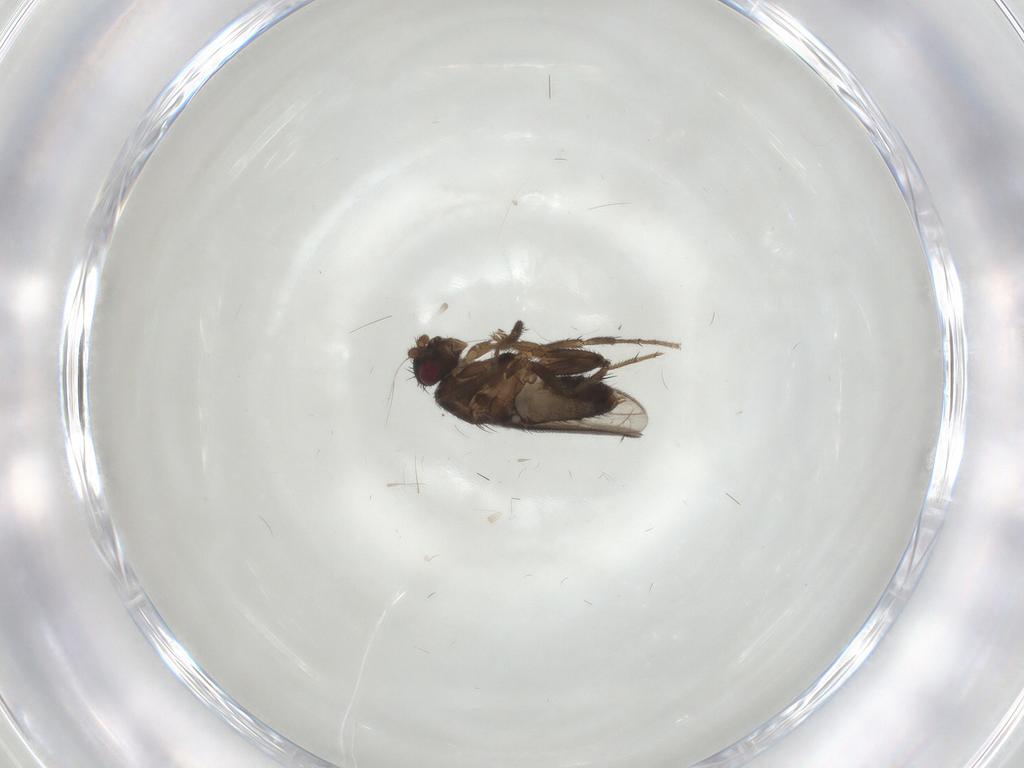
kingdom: Animalia
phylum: Arthropoda
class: Insecta
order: Diptera
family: Sphaeroceridae
